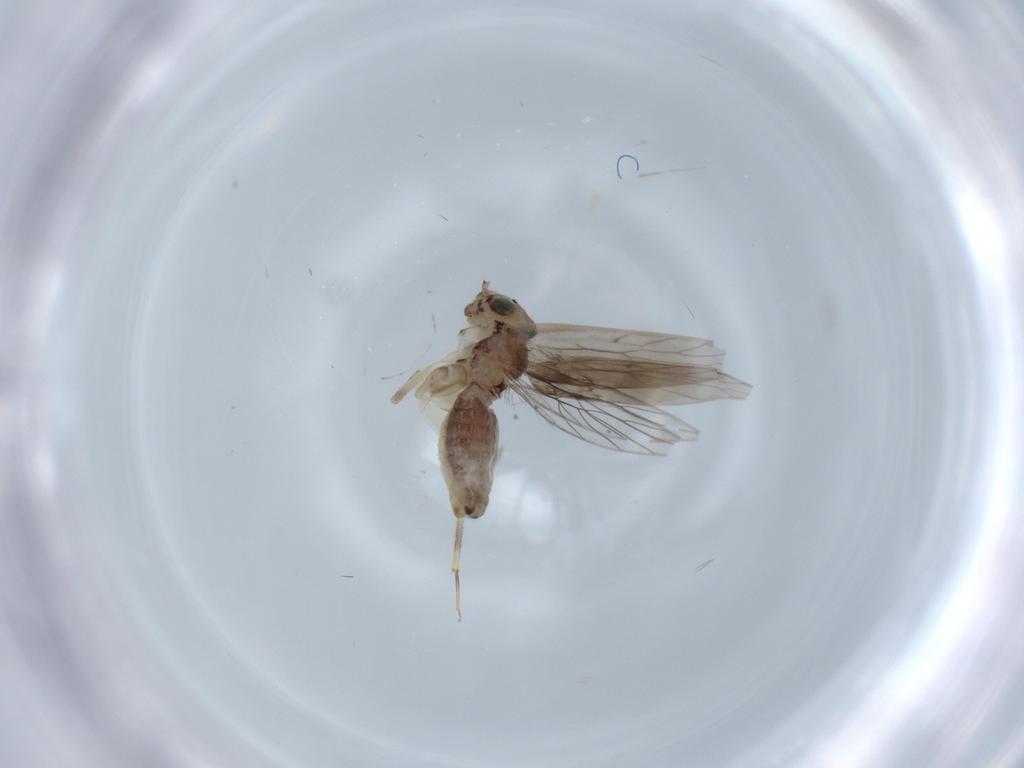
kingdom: Animalia
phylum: Arthropoda
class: Insecta
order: Psocodea
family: Lepidopsocidae
